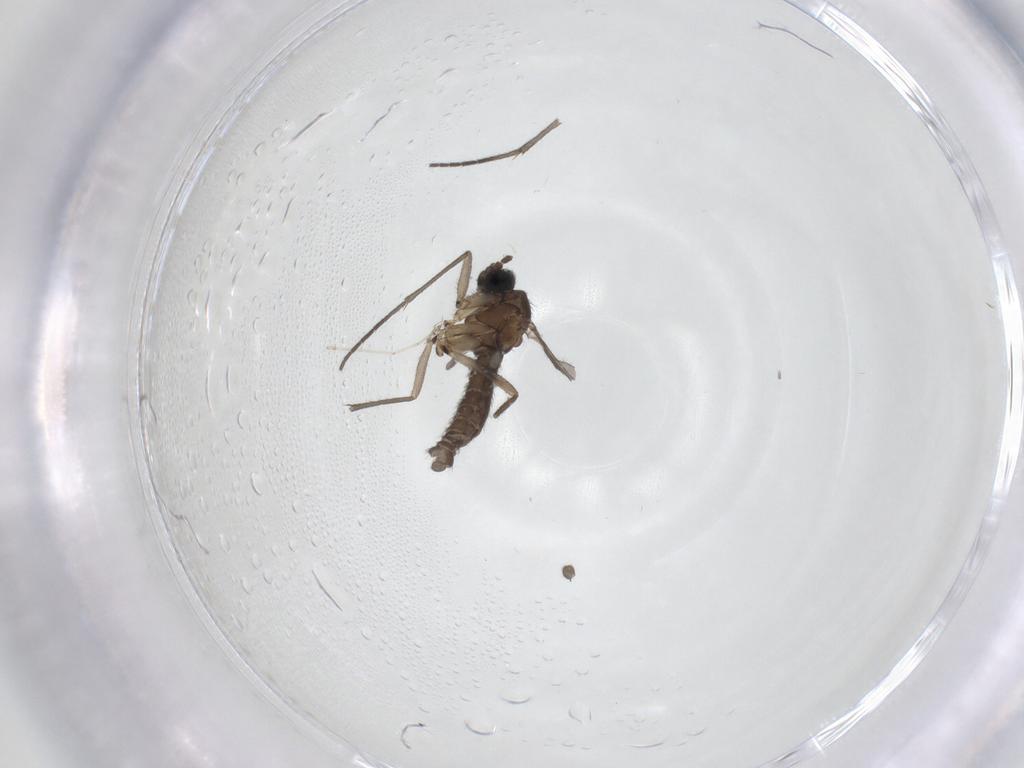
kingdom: Animalia
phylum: Arthropoda
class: Insecta
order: Diptera
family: Sciaridae
